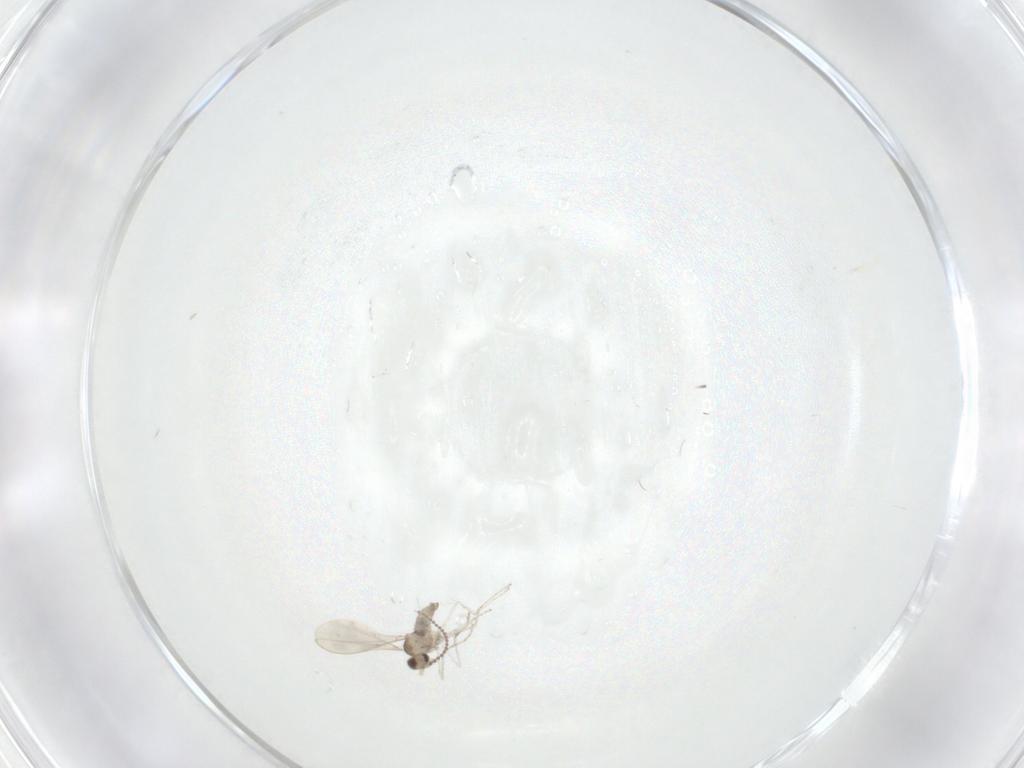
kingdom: Animalia
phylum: Arthropoda
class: Insecta
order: Diptera
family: Cecidomyiidae
